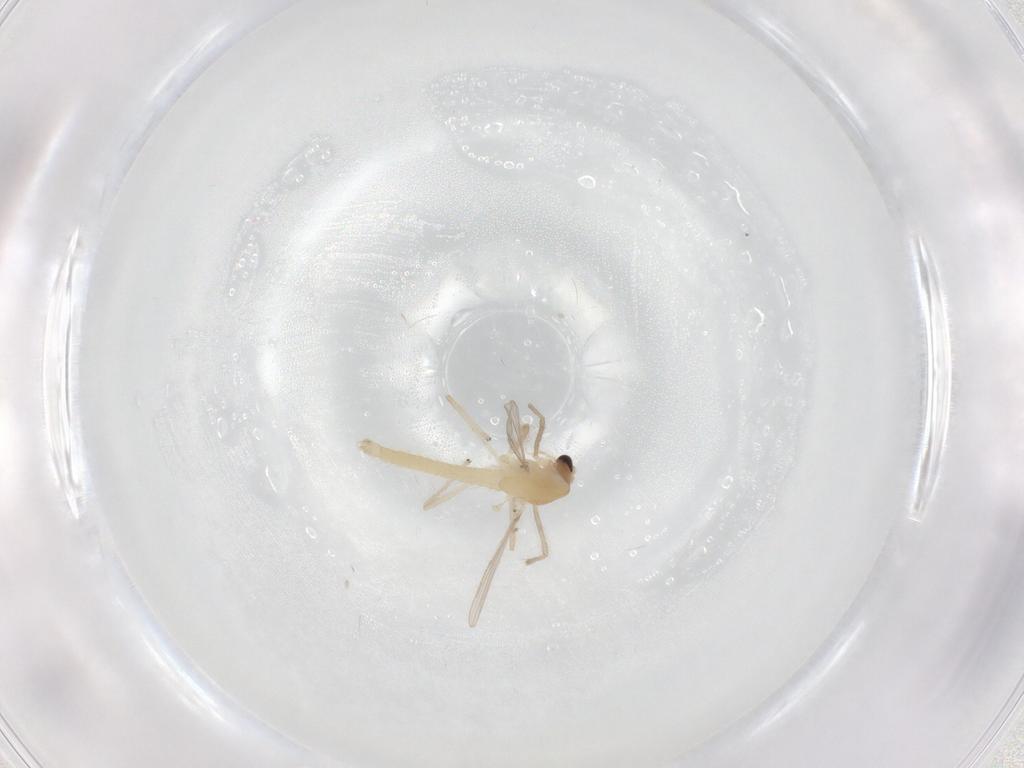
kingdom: Animalia
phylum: Arthropoda
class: Insecta
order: Diptera
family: Chironomidae
